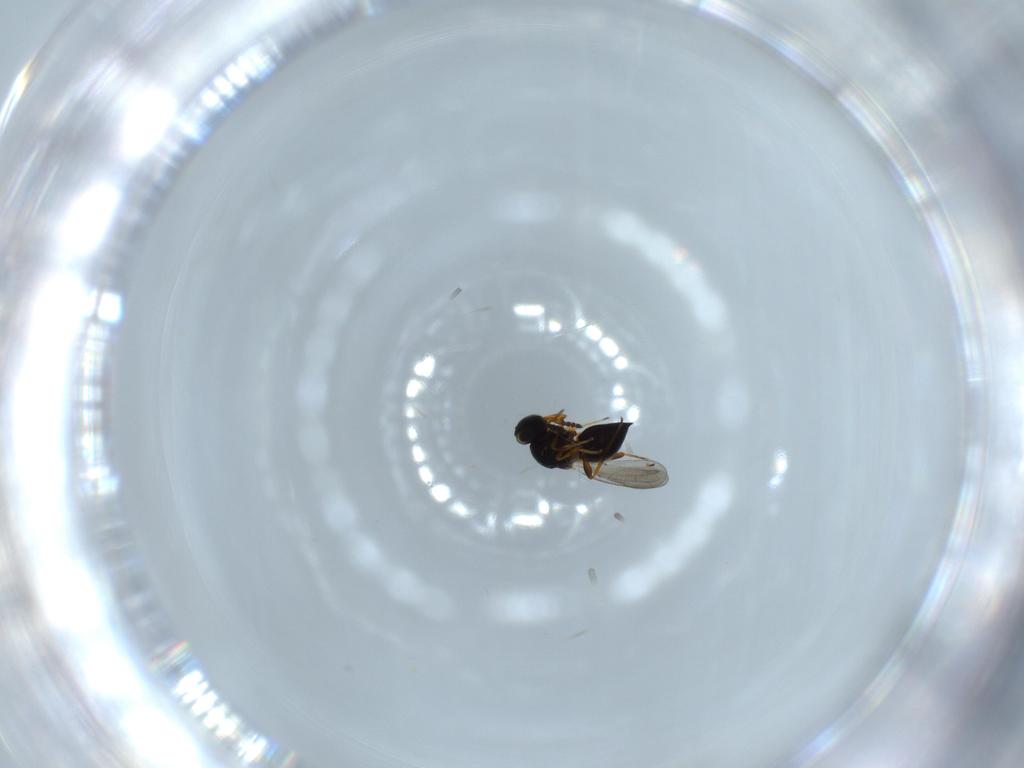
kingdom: Animalia
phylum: Arthropoda
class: Insecta
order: Hymenoptera
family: Platygastridae
